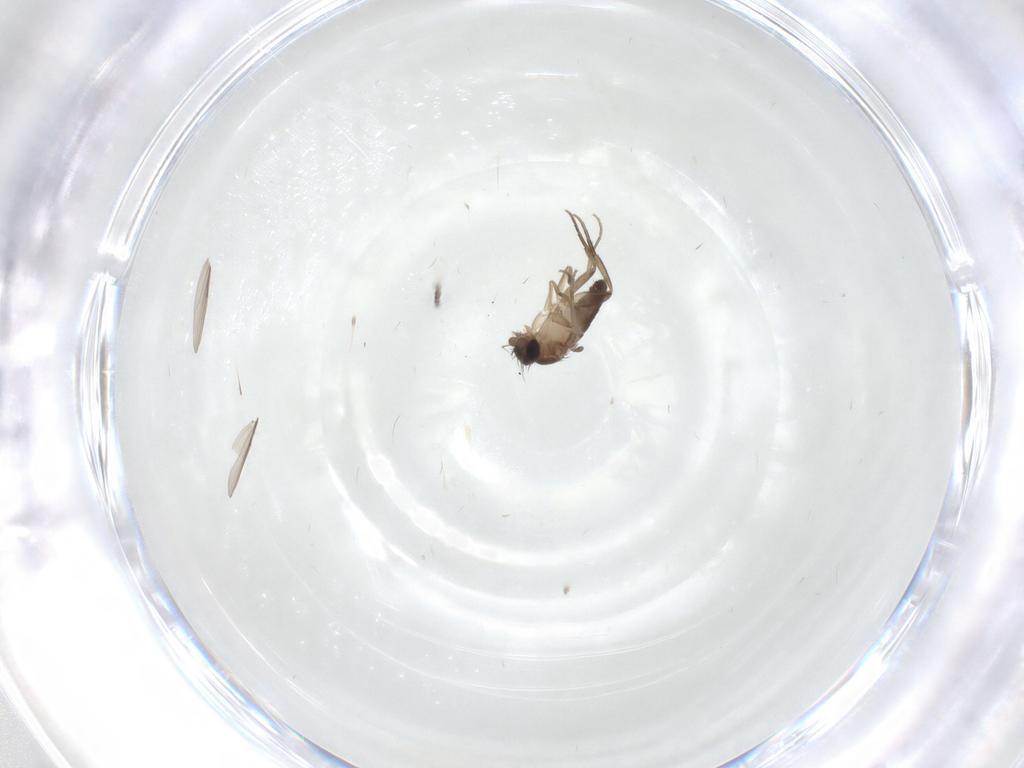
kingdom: Animalia
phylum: Arthropoda
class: Insecta
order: Diptera
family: Phoridae
